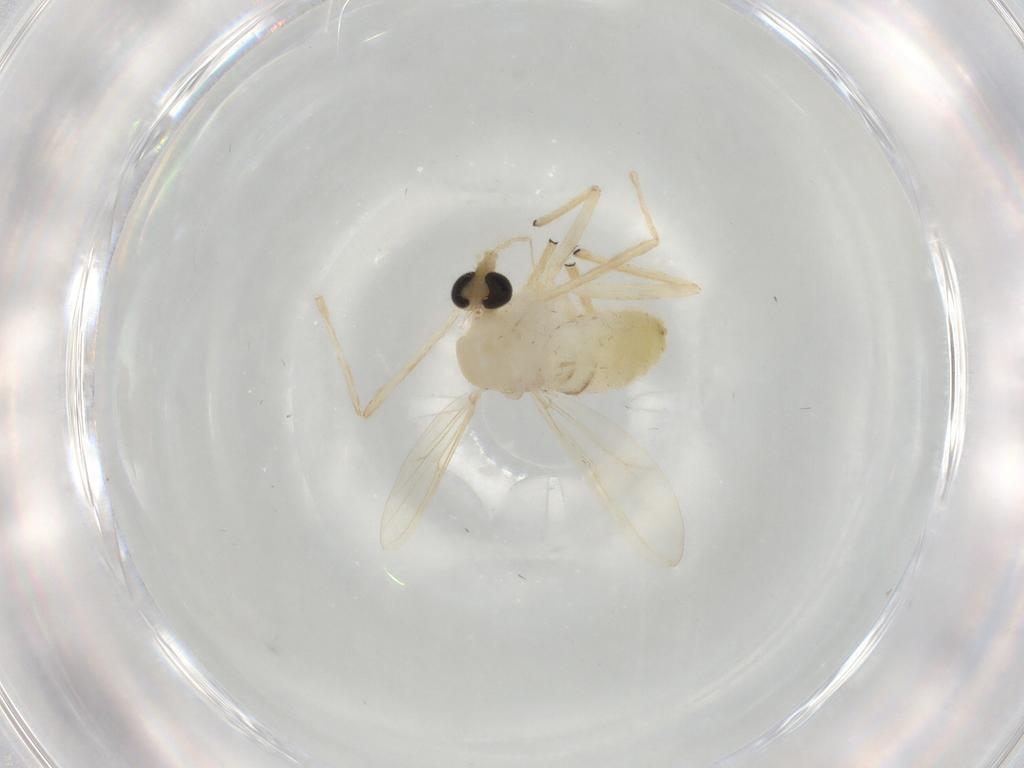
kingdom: Animalia
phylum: Arthropoda
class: Insecta
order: Diptera
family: Chironomidae
